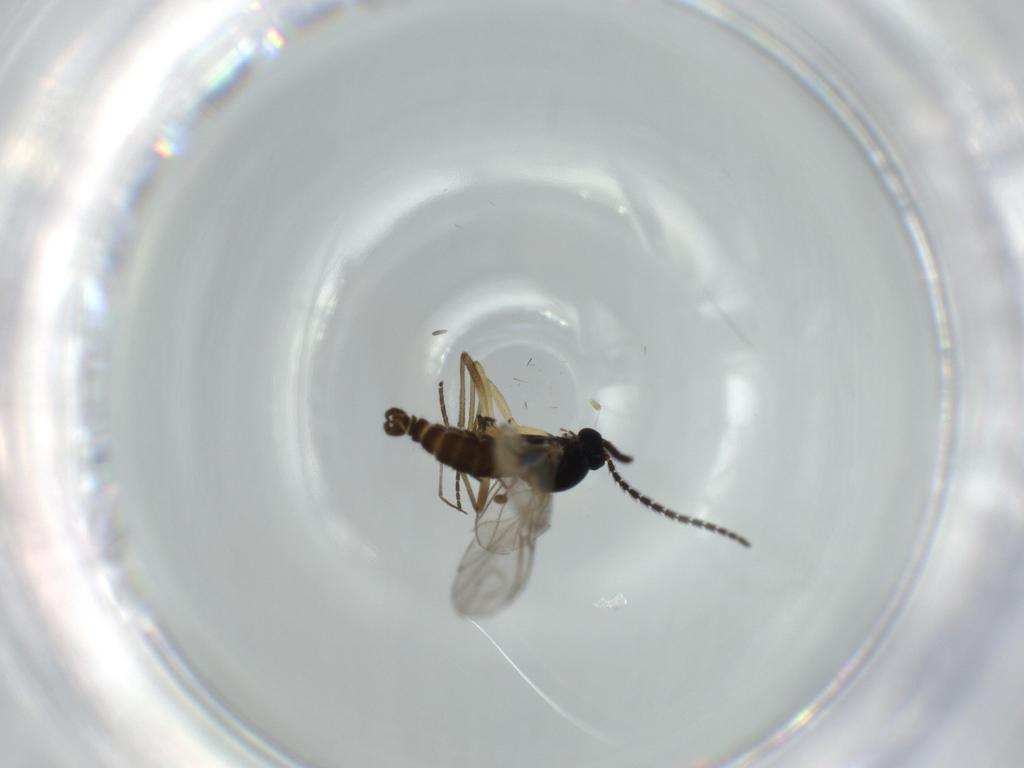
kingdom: Animalia
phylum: Arthropoda
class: Insecta
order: Diptera
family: Sciaridae
